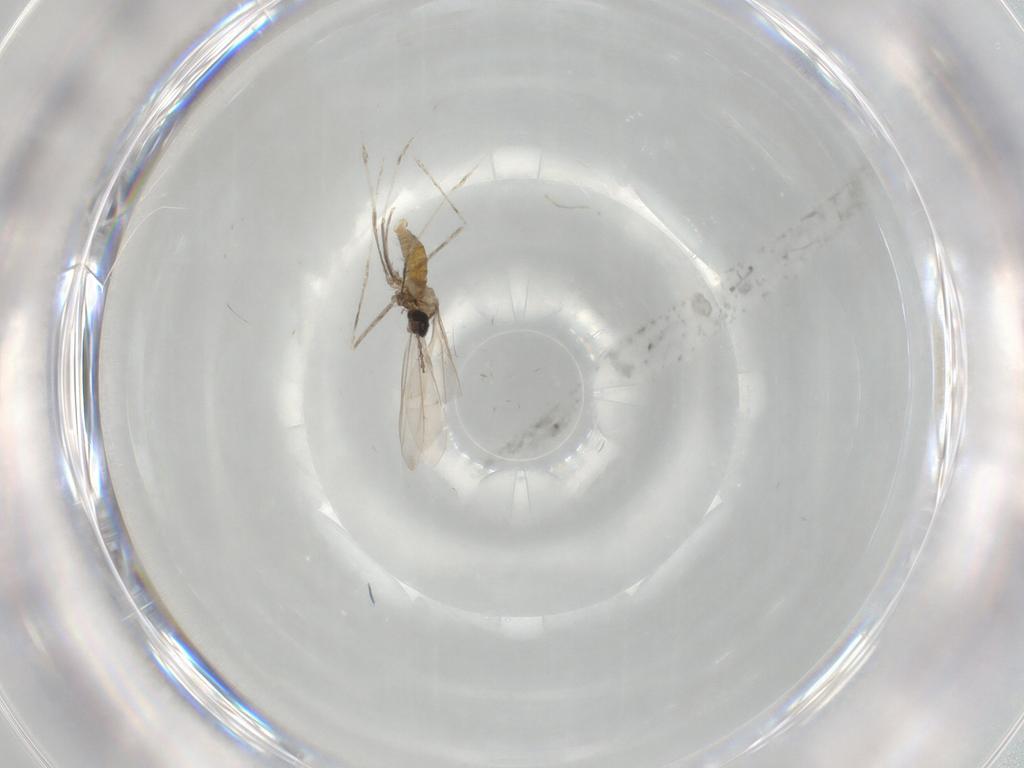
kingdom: Animalia
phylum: Arthropoda
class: Insecta
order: Diptera
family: Cecidomyiidae
